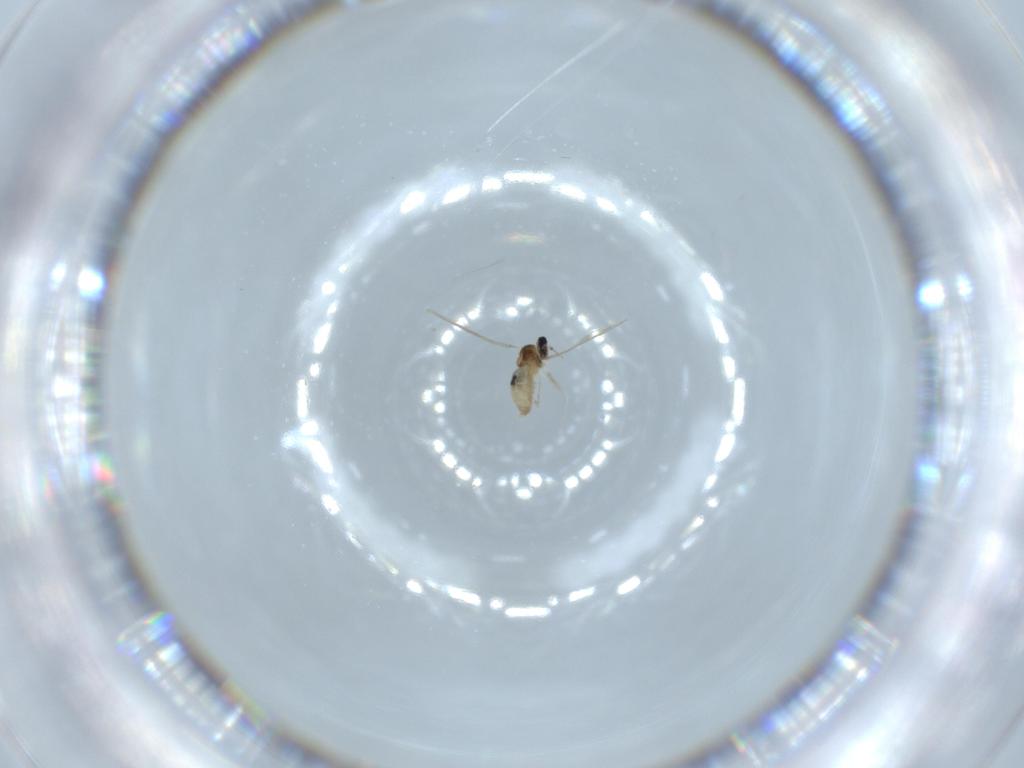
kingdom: Animalia
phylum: Arthropoda
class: Insecta
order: Diptera
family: Cecidomyiidae
